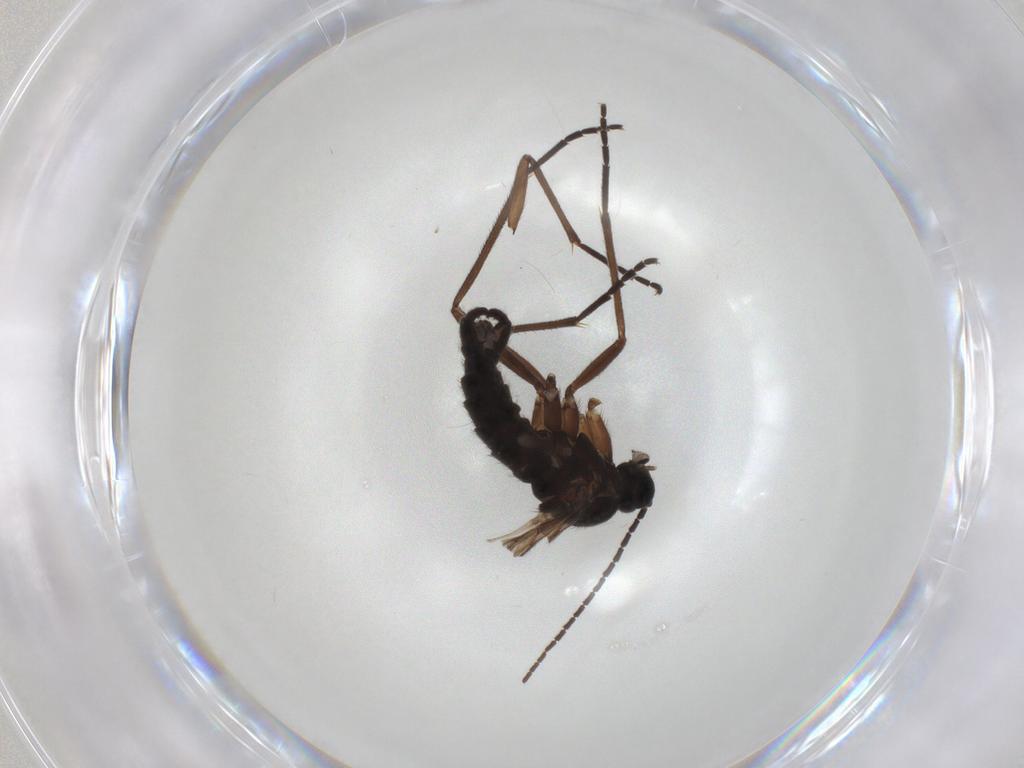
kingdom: Animalia
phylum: Arthropoda
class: Insecta
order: Diptera
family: Sciaridae
